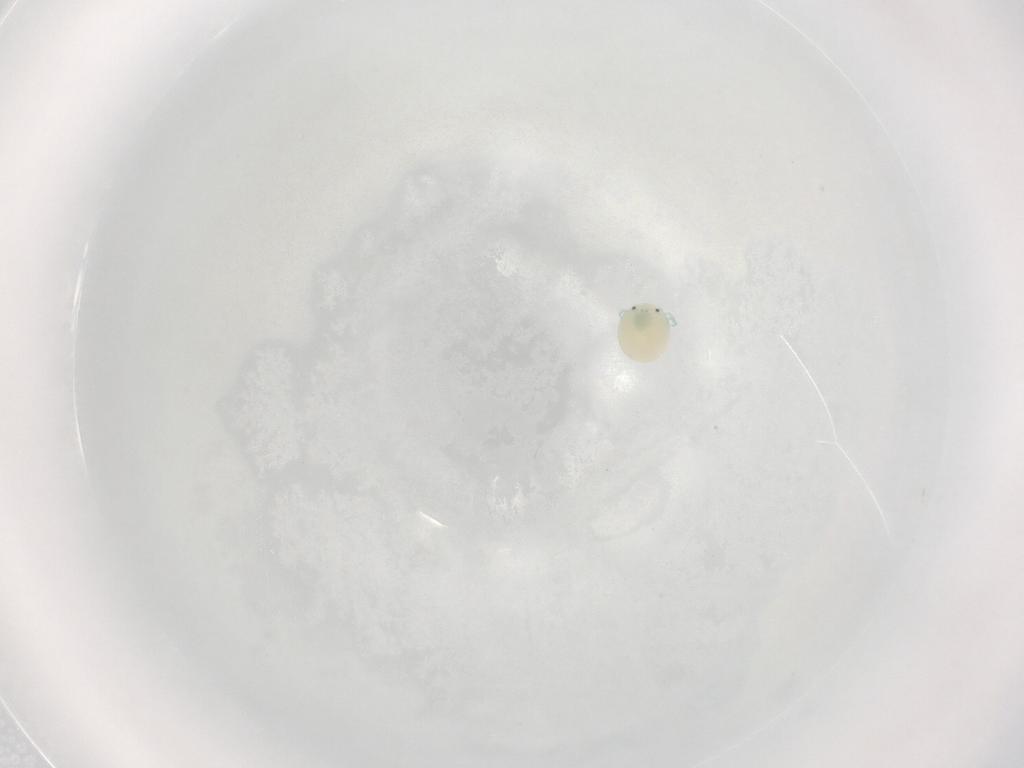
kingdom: Animalia
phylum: Arthropoda
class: Arachnida
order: Trombidiformes
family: Arrenuridae
